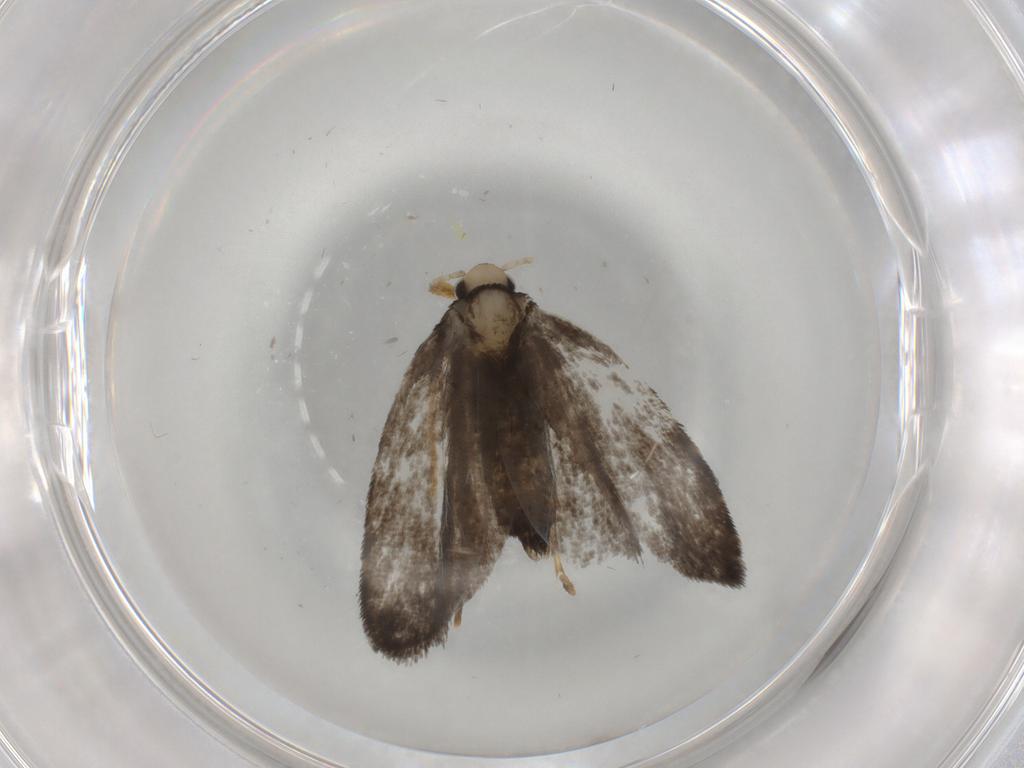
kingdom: Animalia
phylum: Arthropoda
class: Insecta
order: Lepidoptera
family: Psychidae
